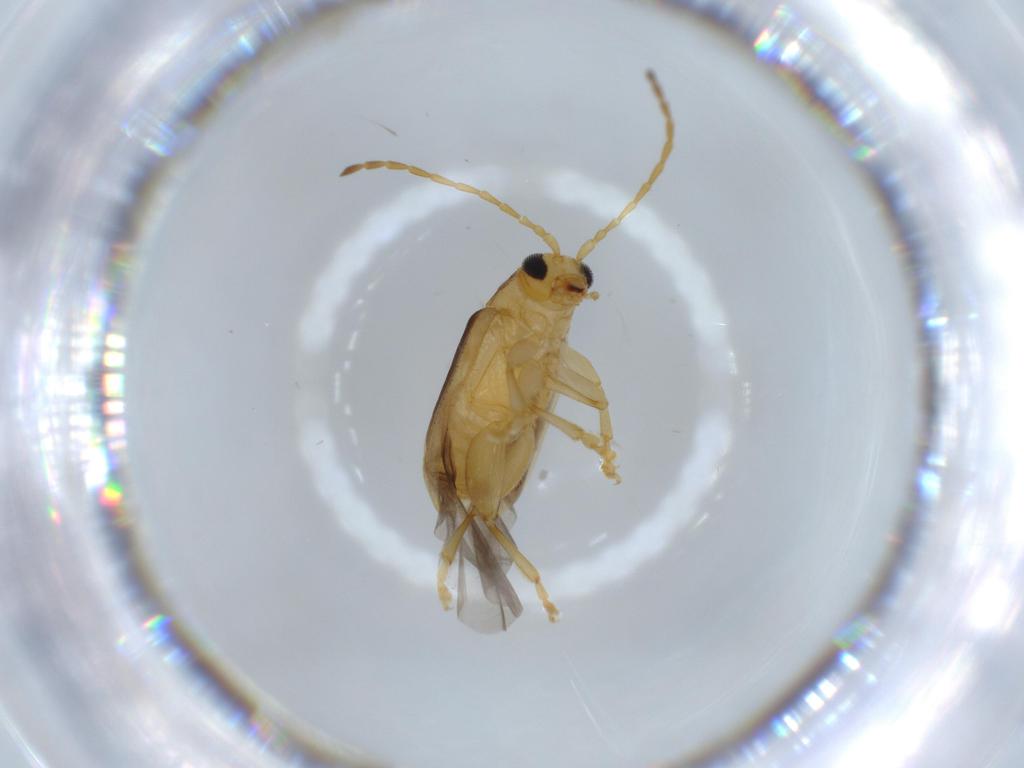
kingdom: Animalia
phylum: Arthropoda
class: Insecta
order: Coleoptera
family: Chrysomelidae
